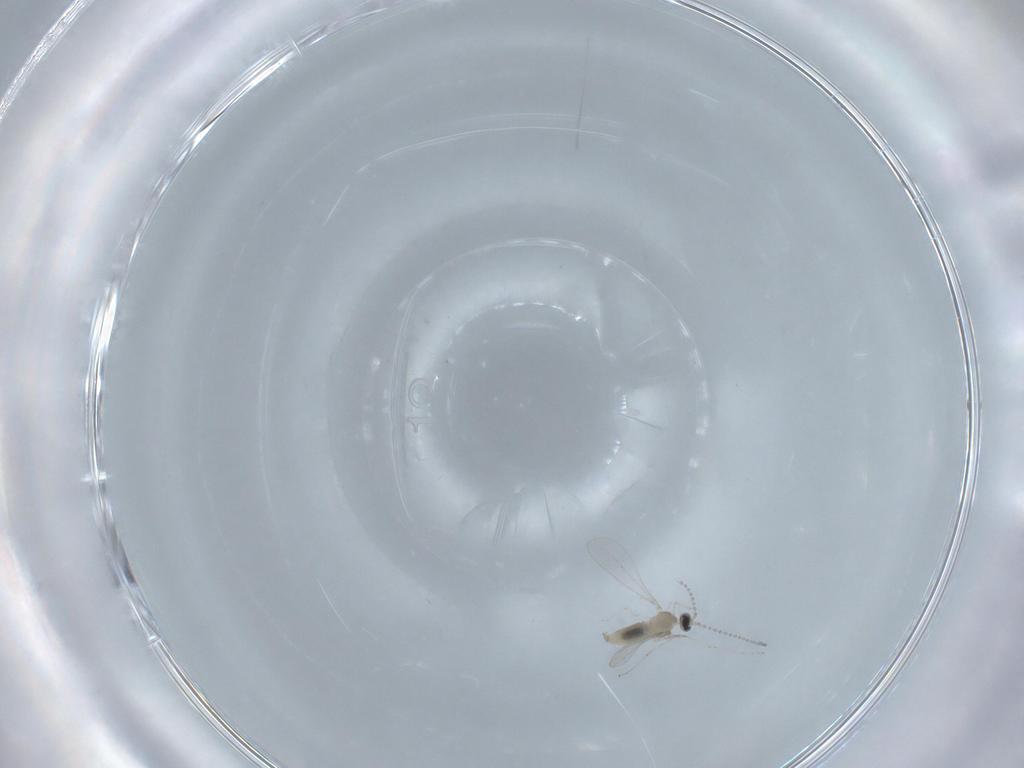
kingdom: Animalia
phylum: Arthropoda
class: Insecta
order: Diptera
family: Cecidomyiidae
